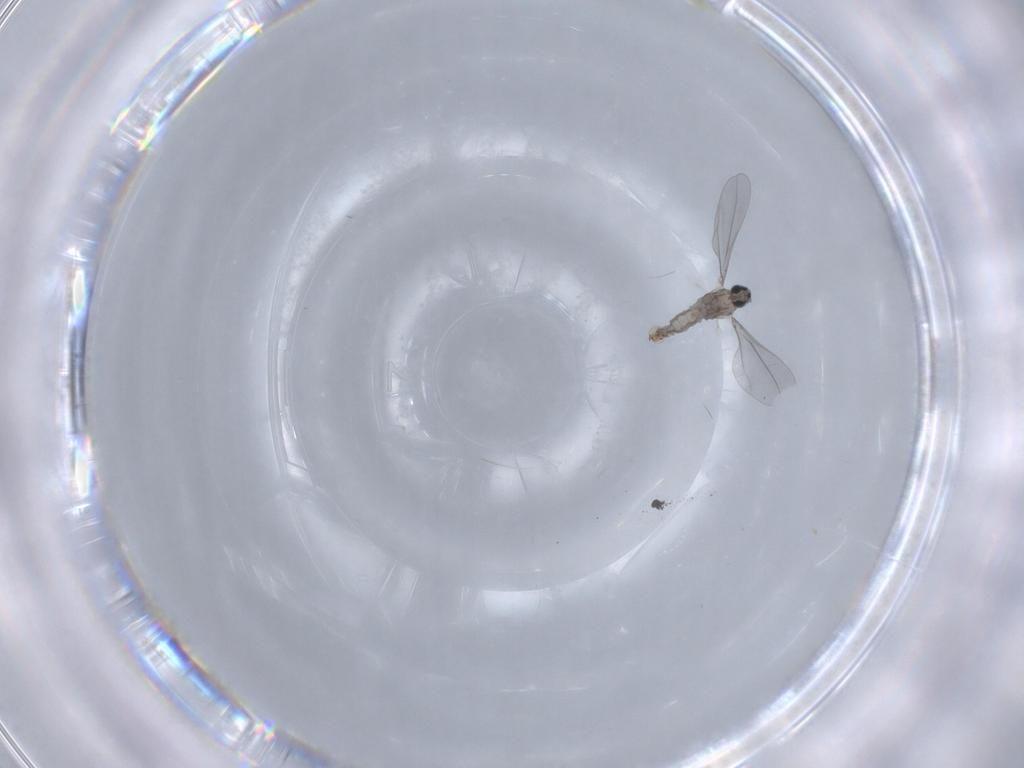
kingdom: Animalia
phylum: Arthropoda
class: Insecta
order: Diptera
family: Cecidomyiidae
